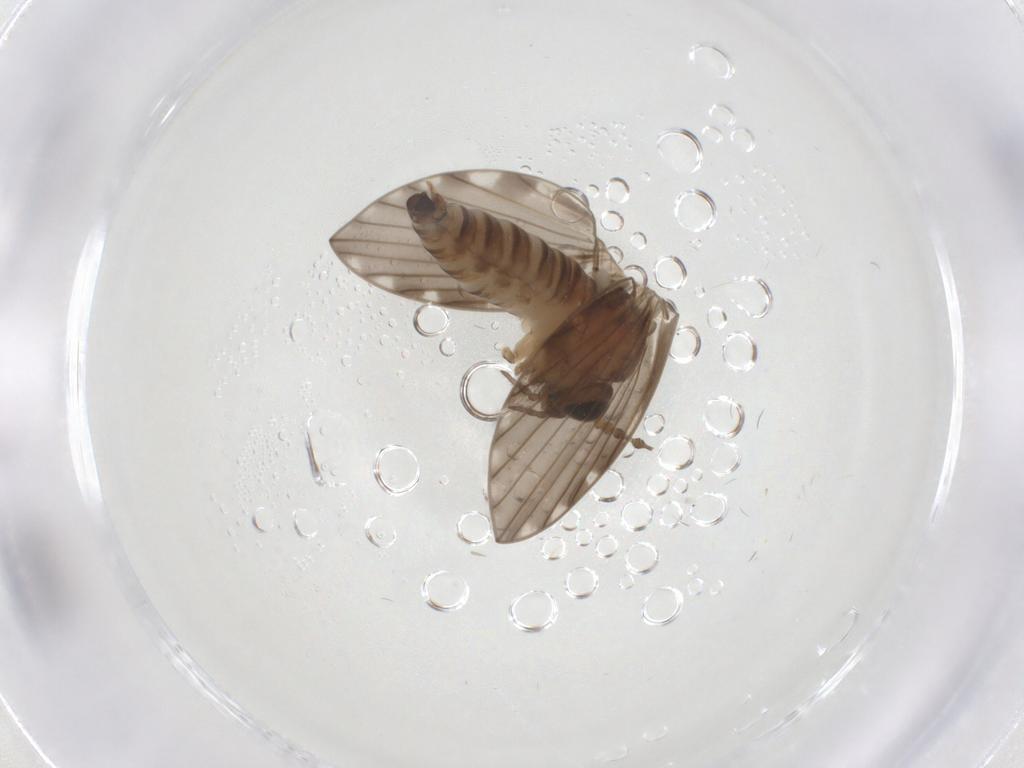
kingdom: Animalia
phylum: Arthropoda
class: Insecta
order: Diptera
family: Psychodidae
